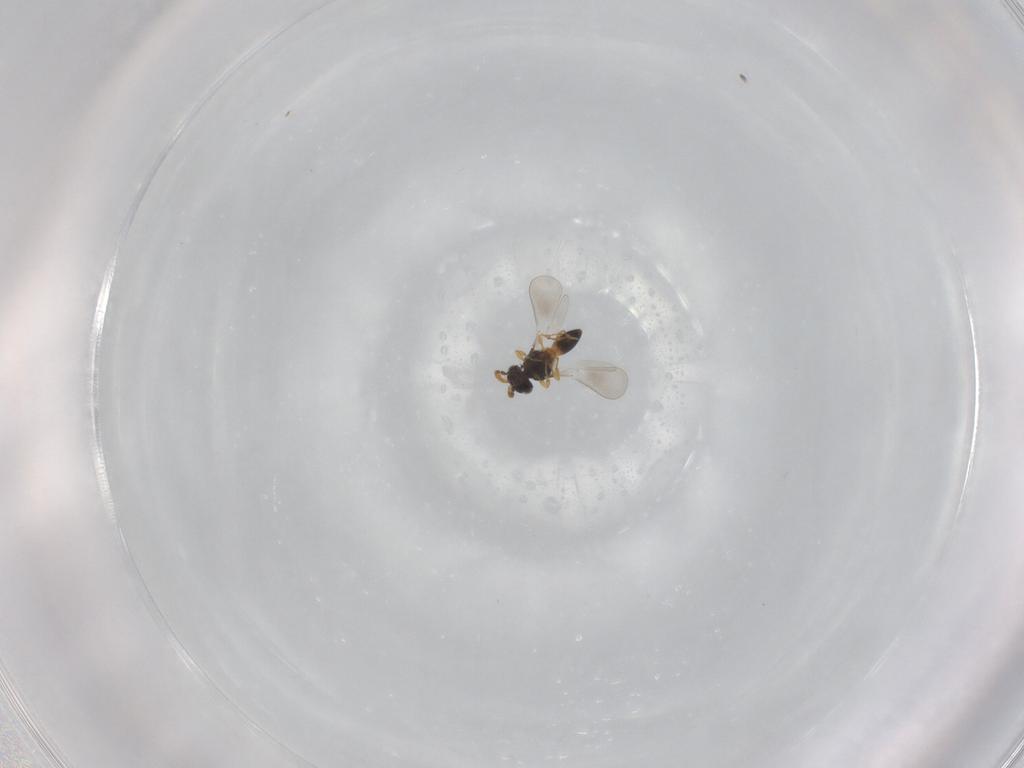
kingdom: Animalia
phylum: Arthropoda
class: Insecta
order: Hymenoptera
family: Platygastridae
